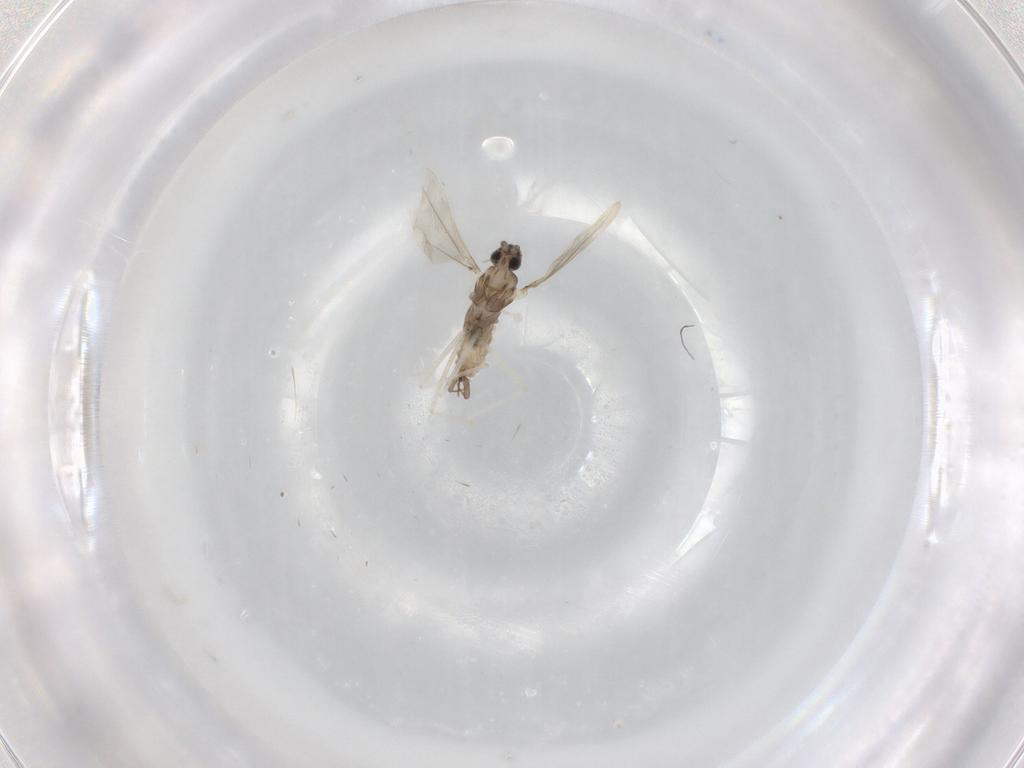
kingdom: Animalia
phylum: Arthropoda
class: Insecta
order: Diptera
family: Cecidomyiidae
